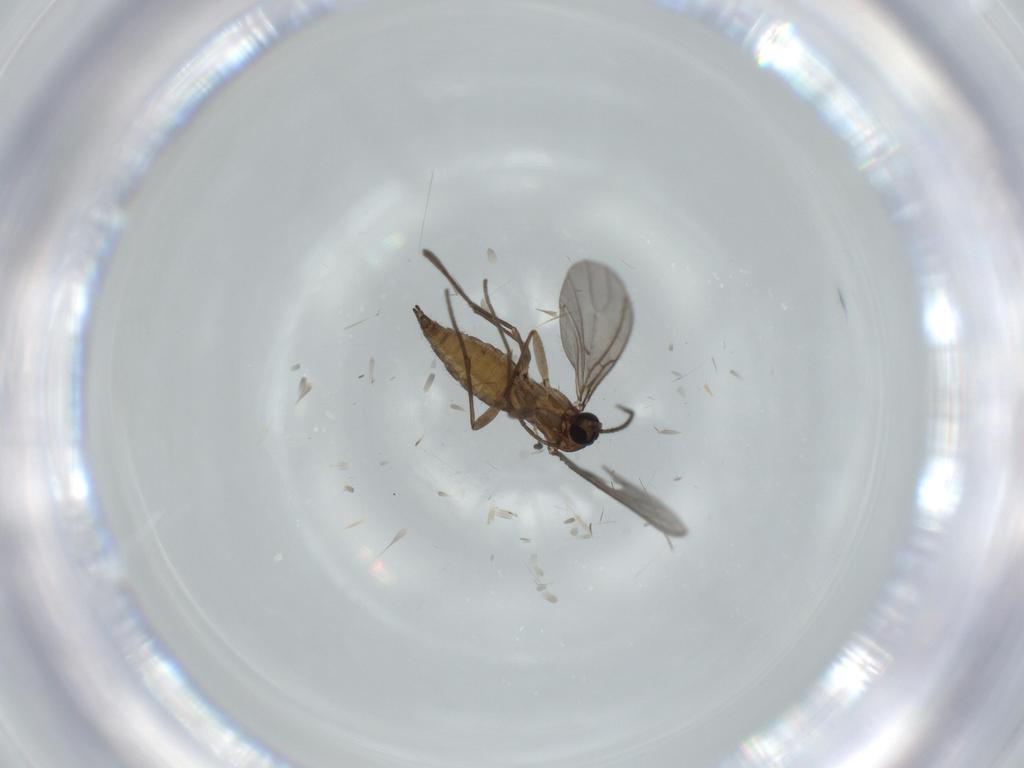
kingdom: Animalia
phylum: Arthropoda
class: Insecta
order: Diptera
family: Sciaridae
